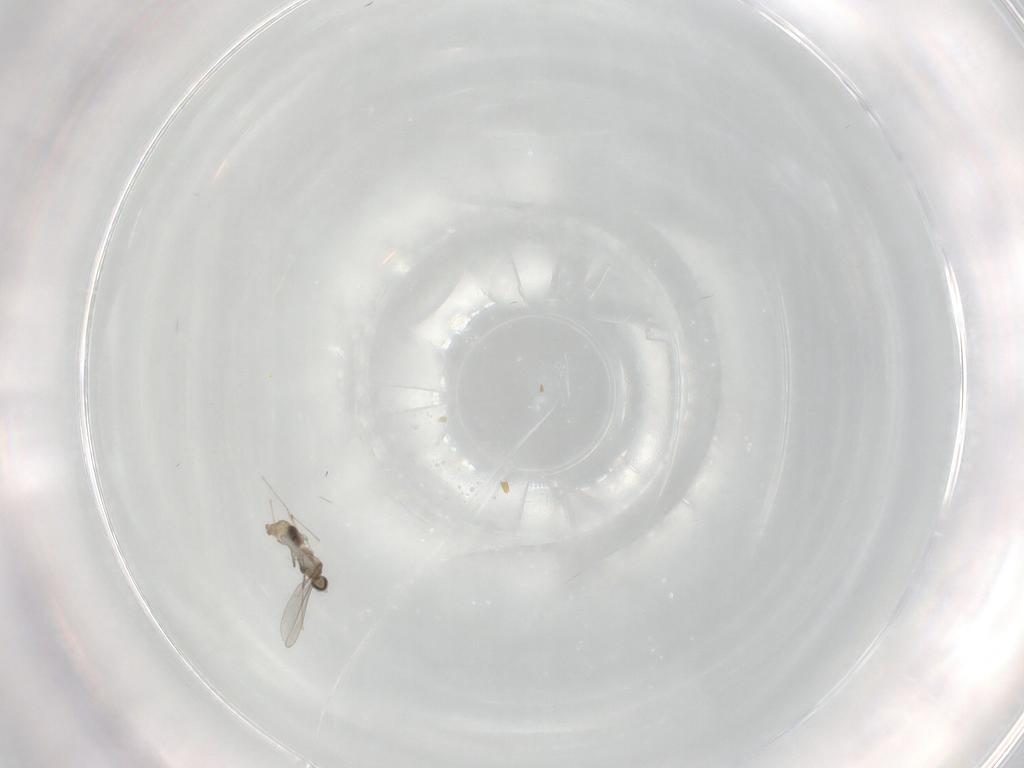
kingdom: Animalia
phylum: Arthropoda
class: Insecta
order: Diptera
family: Cecidomyiidae
